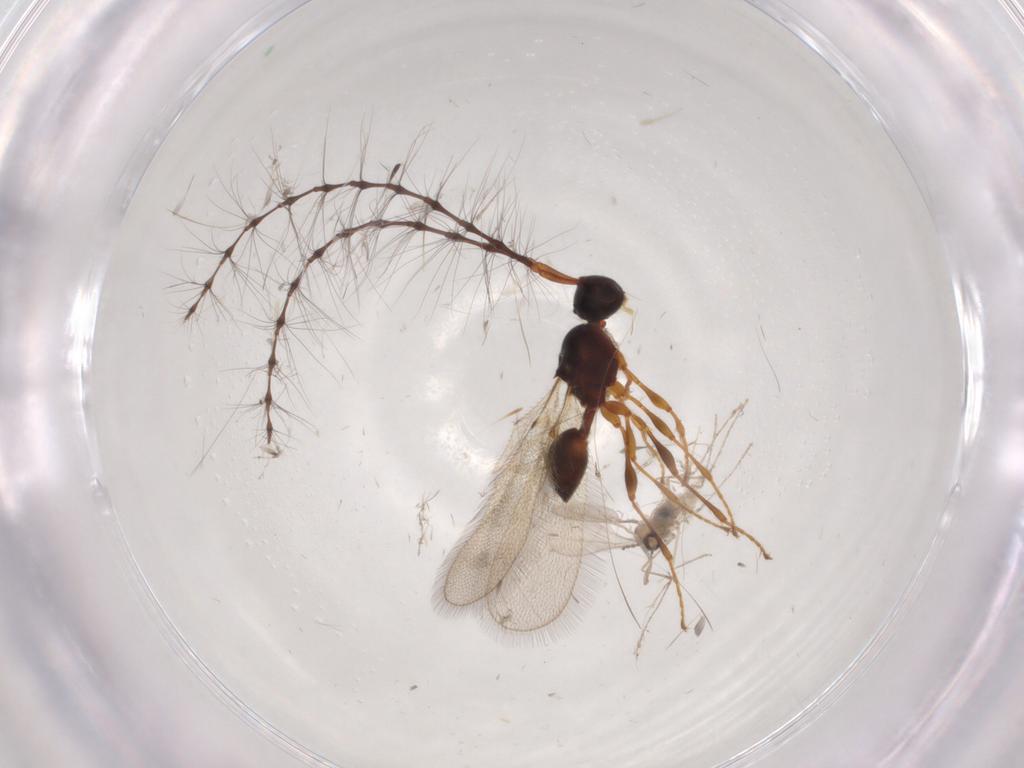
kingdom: Animalia
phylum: Arthropoda
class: Insecta
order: Hymenoptera
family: Diapriidae
